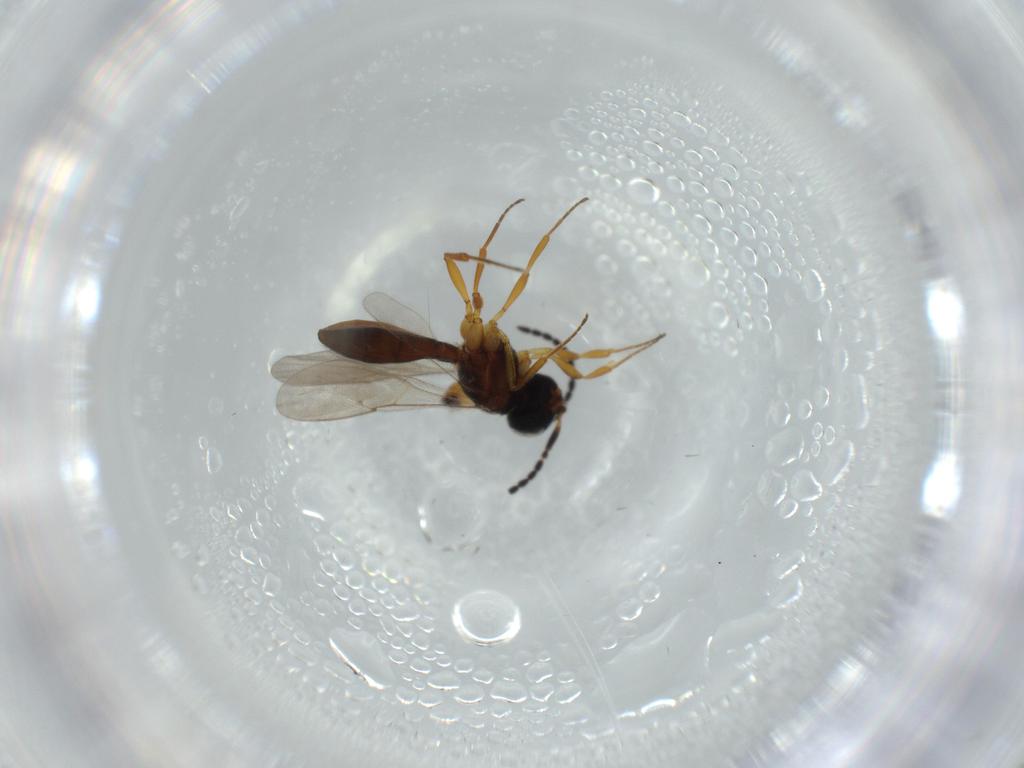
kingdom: Animalia
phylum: Arthropoda
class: Insecta
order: Hymenoptera
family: Formicidae
